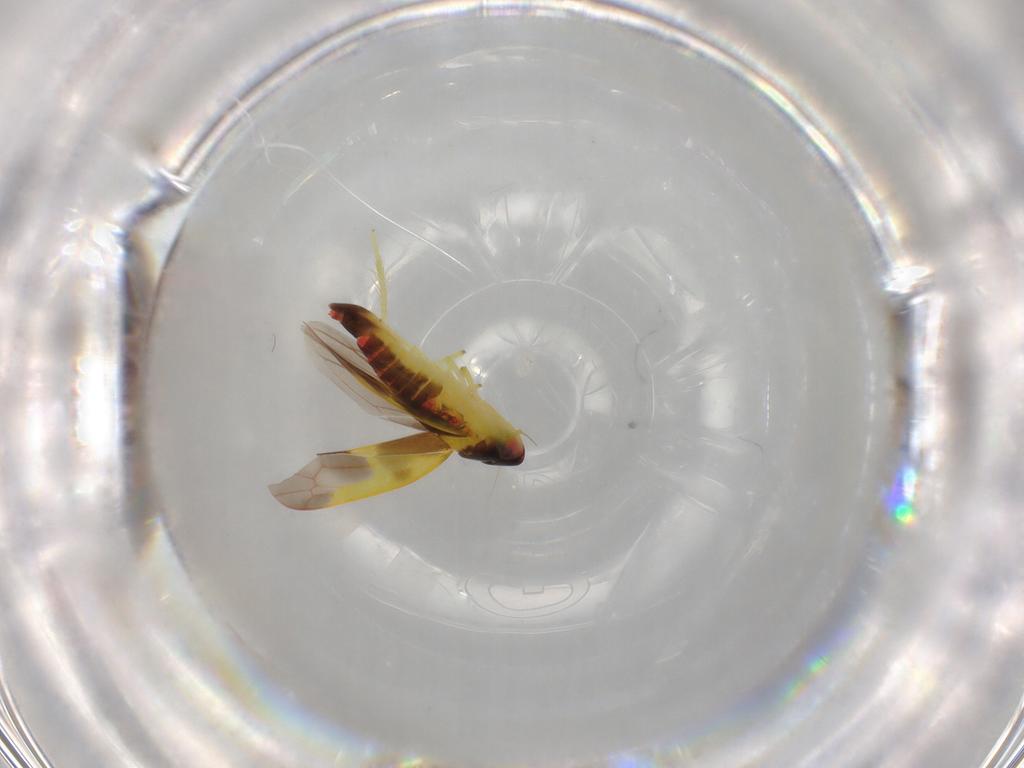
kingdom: Animalia
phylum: Arthropoda
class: Insecta
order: Hemiptera
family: Cicadellidae
